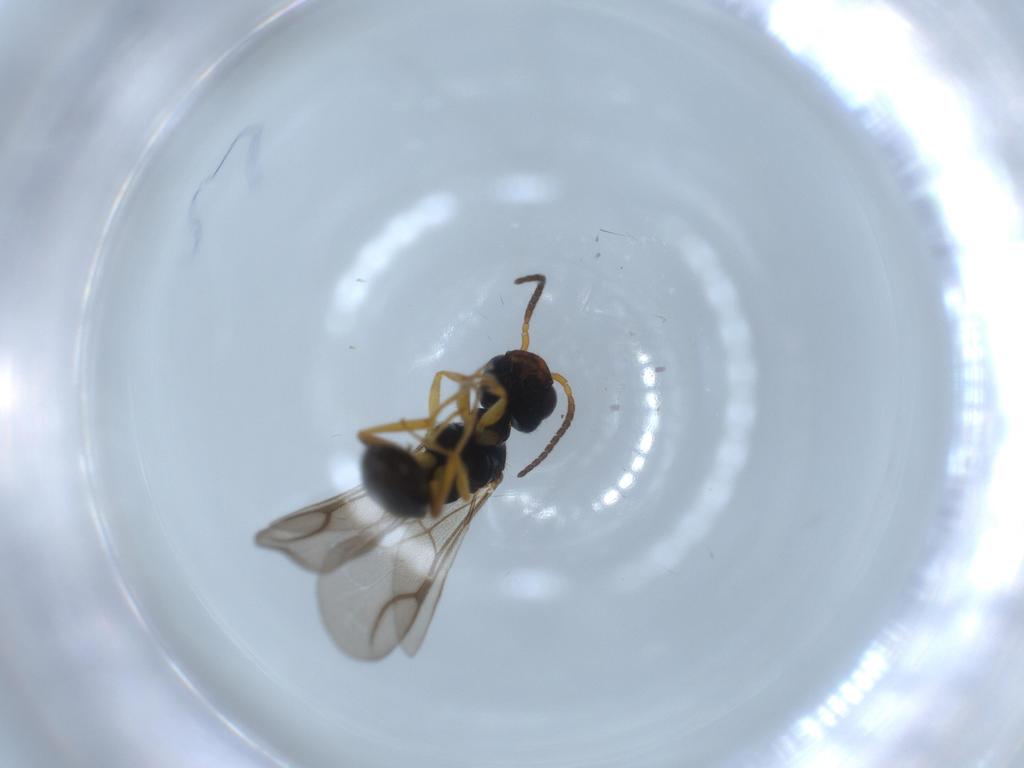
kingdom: Animalia
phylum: Arthropoda
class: Insecta
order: Hymenoptera
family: Bethylidae
